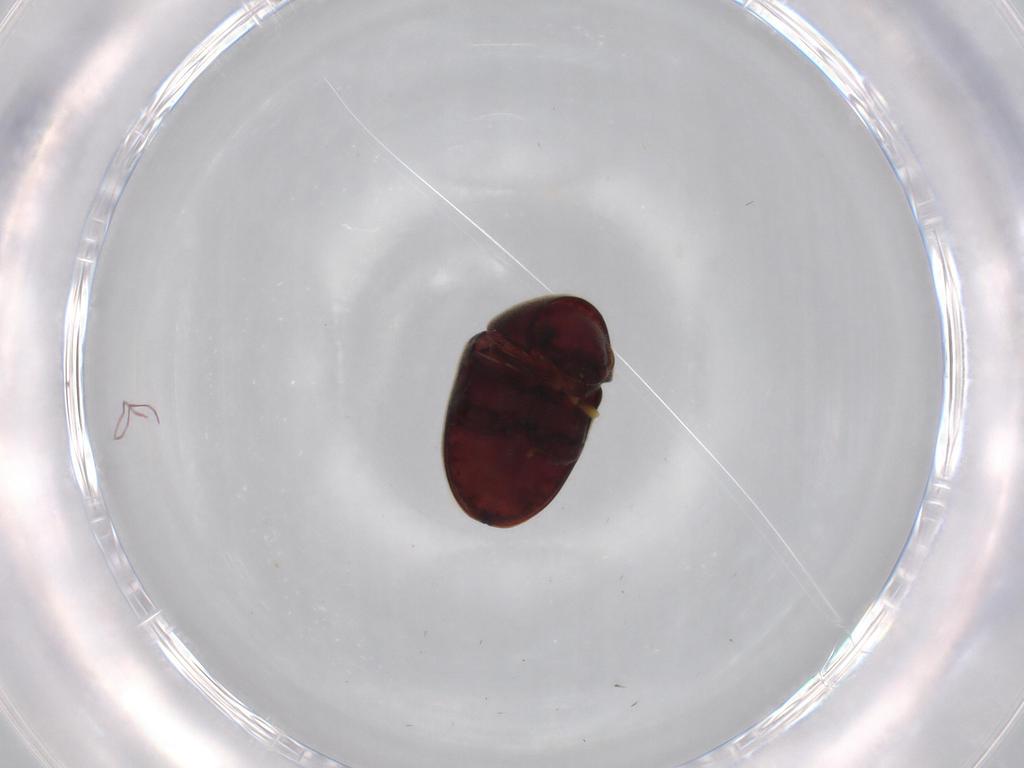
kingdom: Animalia
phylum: Arthropoda
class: Insecta
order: Coleoptera
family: Ptinidae
